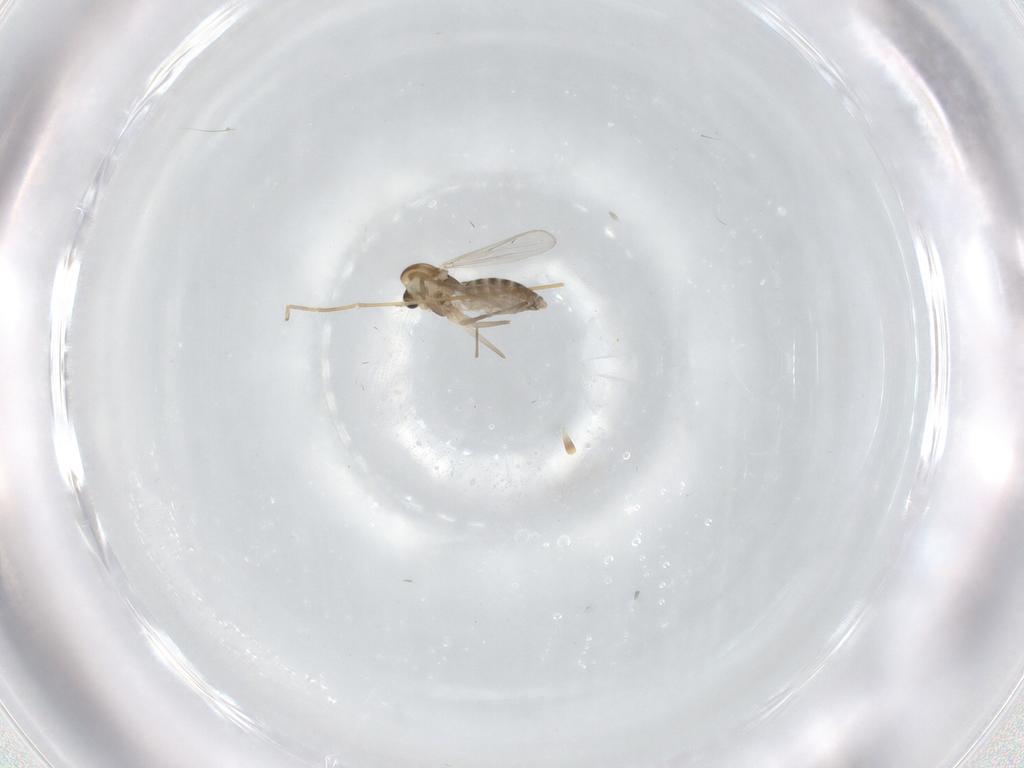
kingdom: Animalia
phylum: Arthropoda
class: Insecta
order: Diptera
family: Chironomidae
